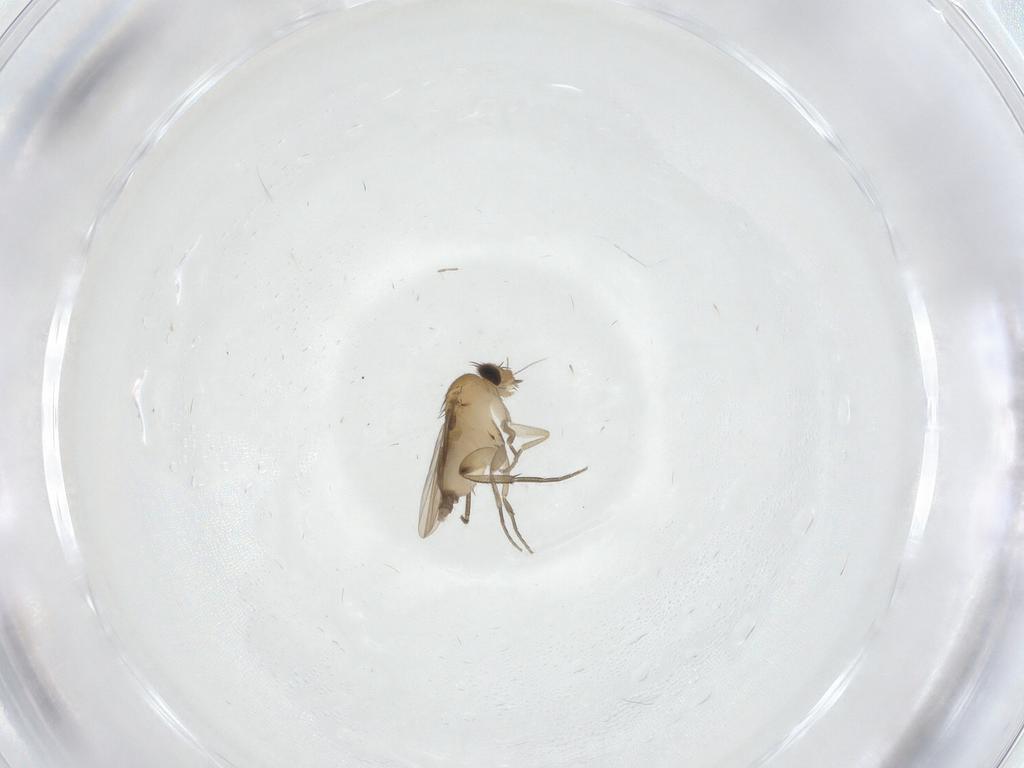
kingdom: Animalia
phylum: Arthropoda
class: Insecta
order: Diptera
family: Phoridae
